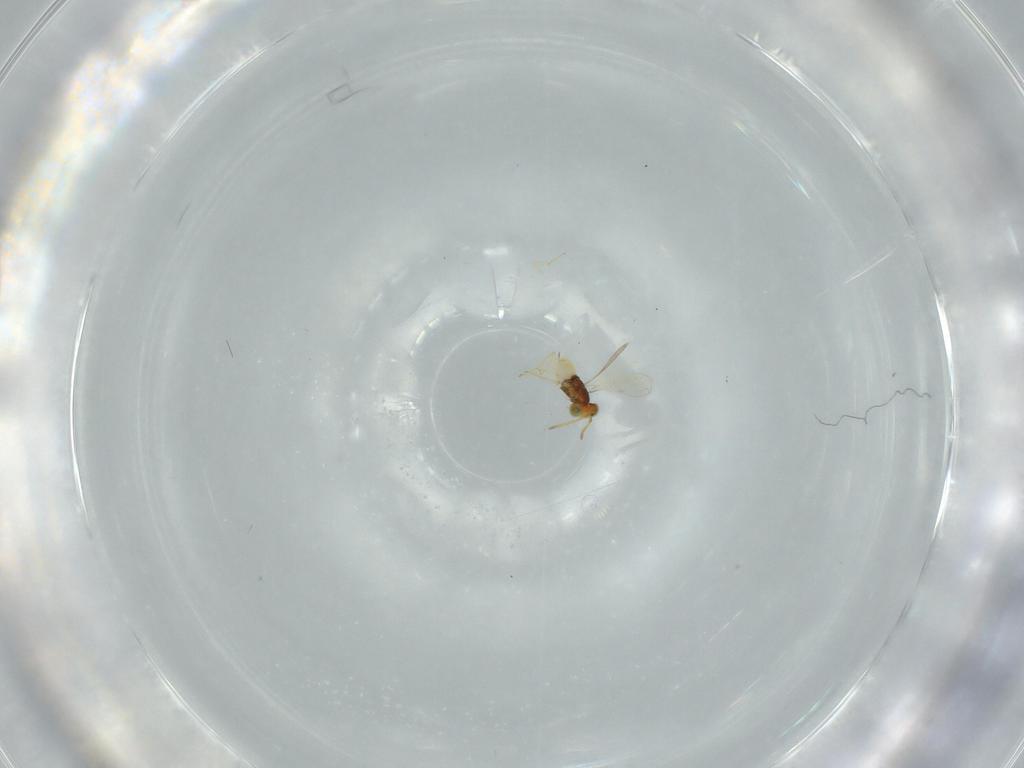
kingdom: Animalia
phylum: Arthropoda
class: Insecta
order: Hymenoptera
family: Aphelinidae
